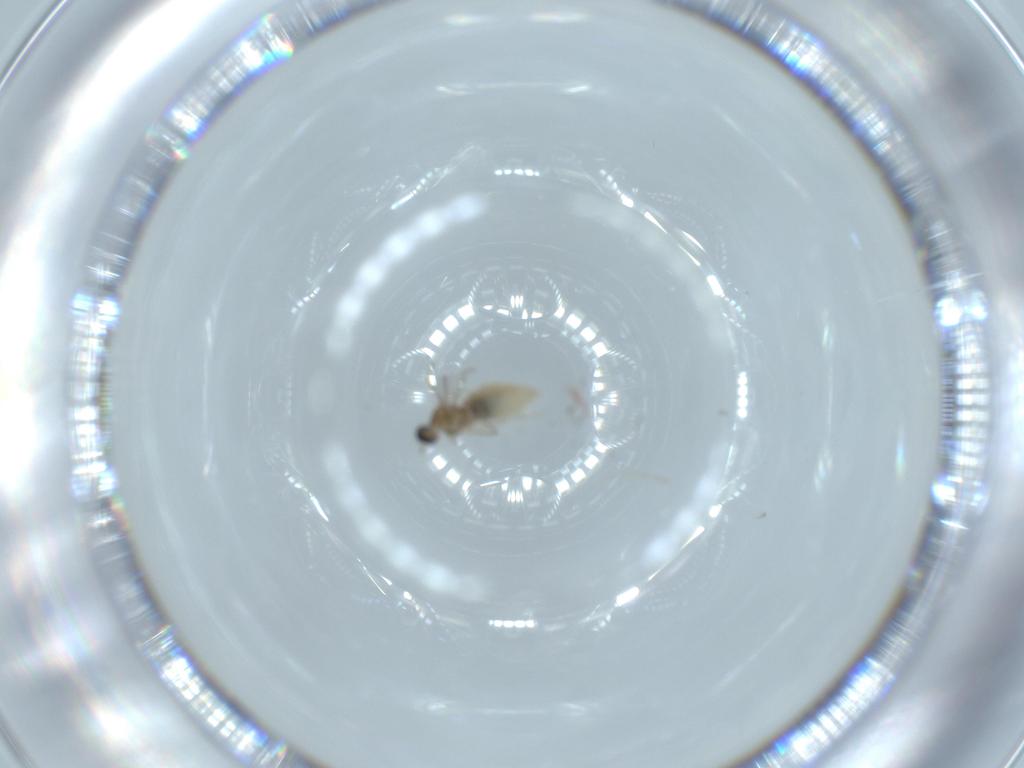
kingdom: Animalia
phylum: Arthropoda
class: Insecta
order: Diptera
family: Cecidomyiidae
